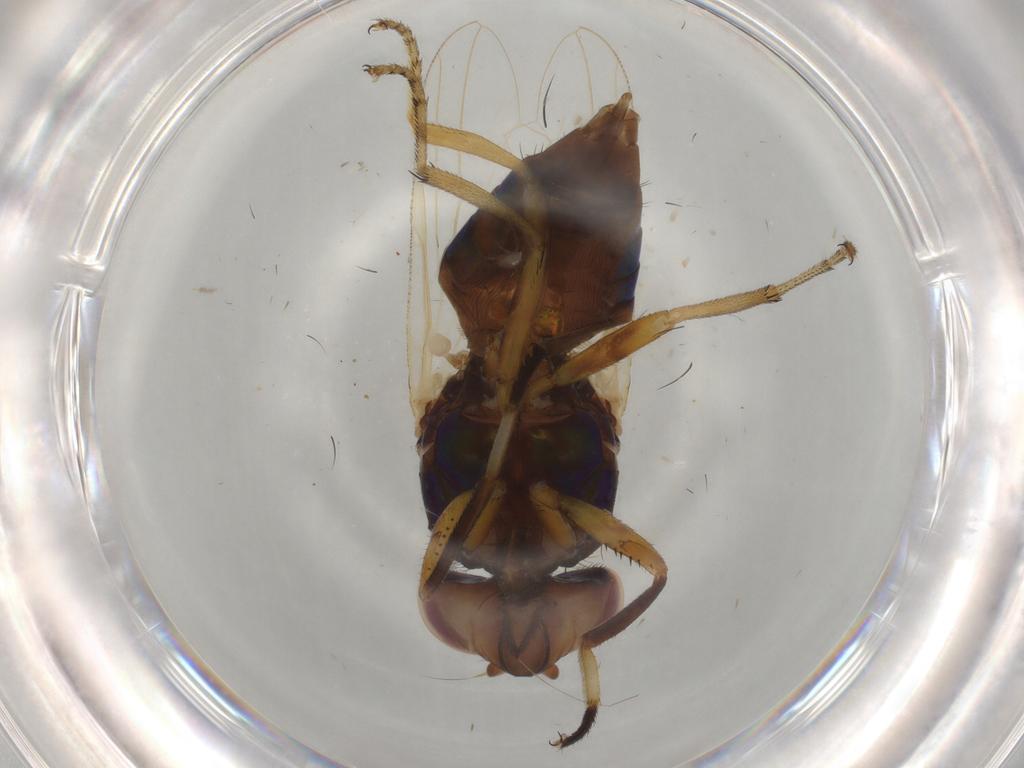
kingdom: Animalia
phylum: Arthropoda
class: Insecta
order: Diptera
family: Ulidiidae
